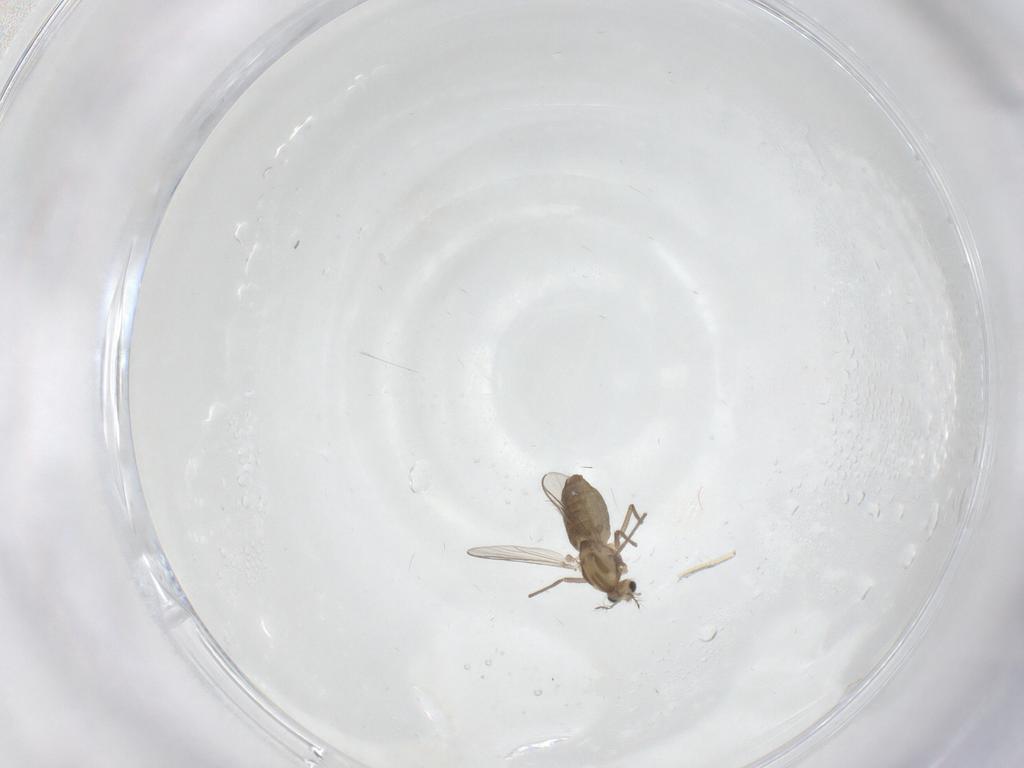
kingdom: Animalia
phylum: Arthropoda
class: Insecta
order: Diptera
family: Chironomidae
